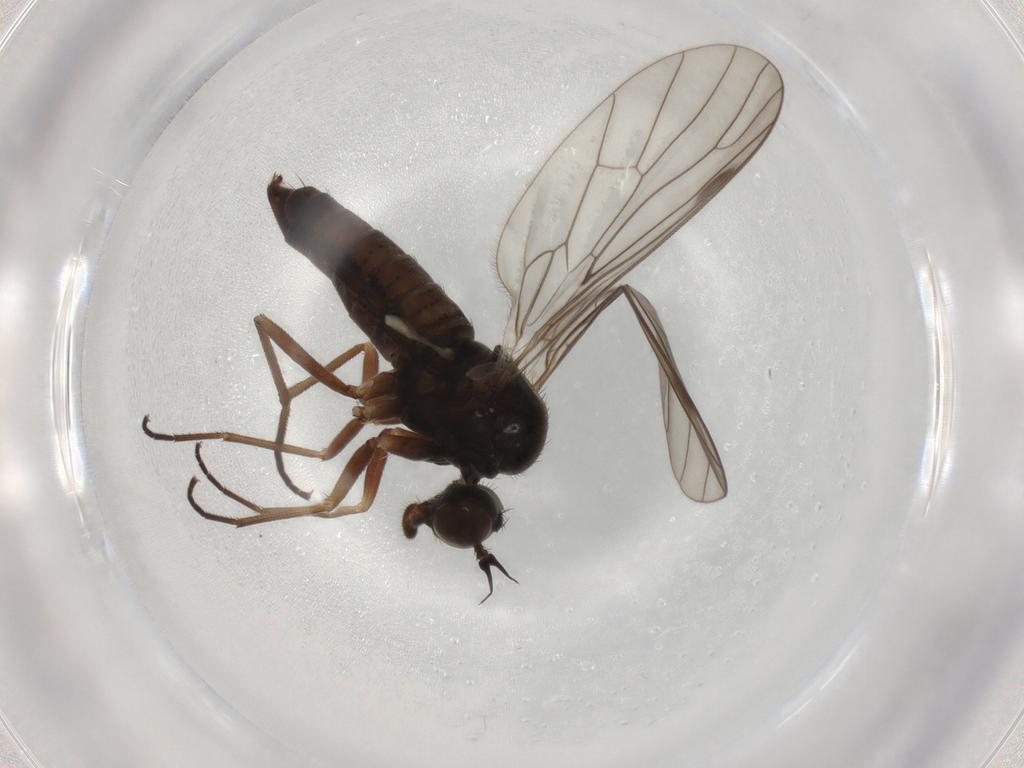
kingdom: Animalia
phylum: Arthropoda
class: Insecta
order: Diptera
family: Empididae
